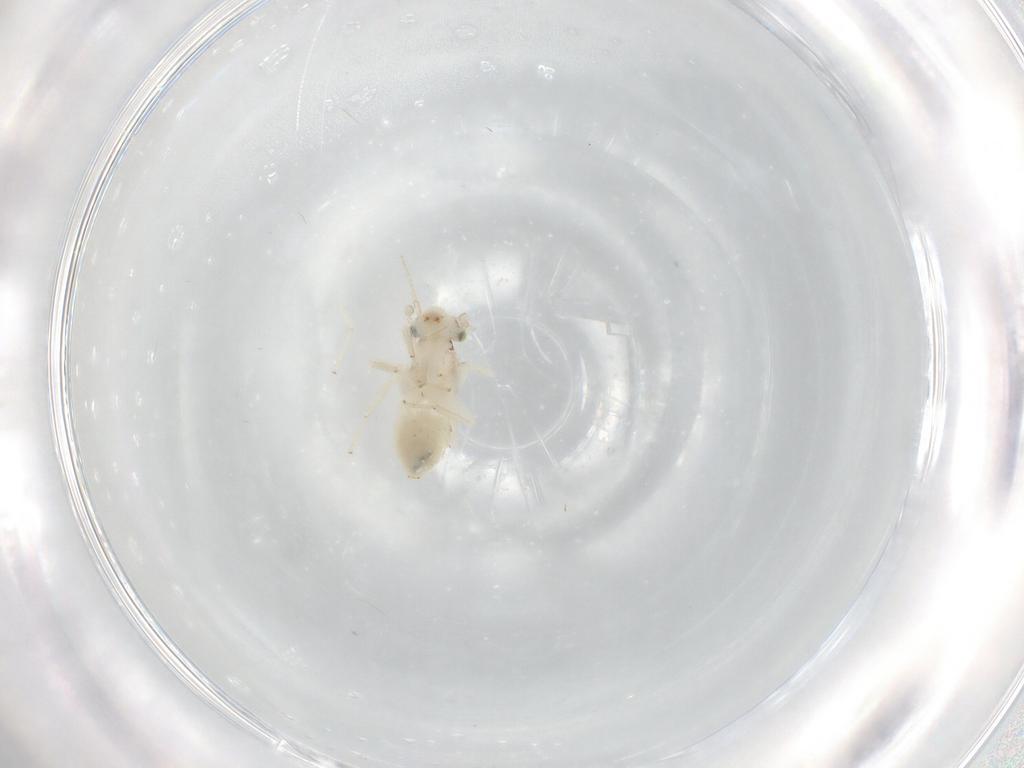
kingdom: Animalia
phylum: Arthropoda
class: Insecta
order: Psocodea
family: Lepidopsocidae
